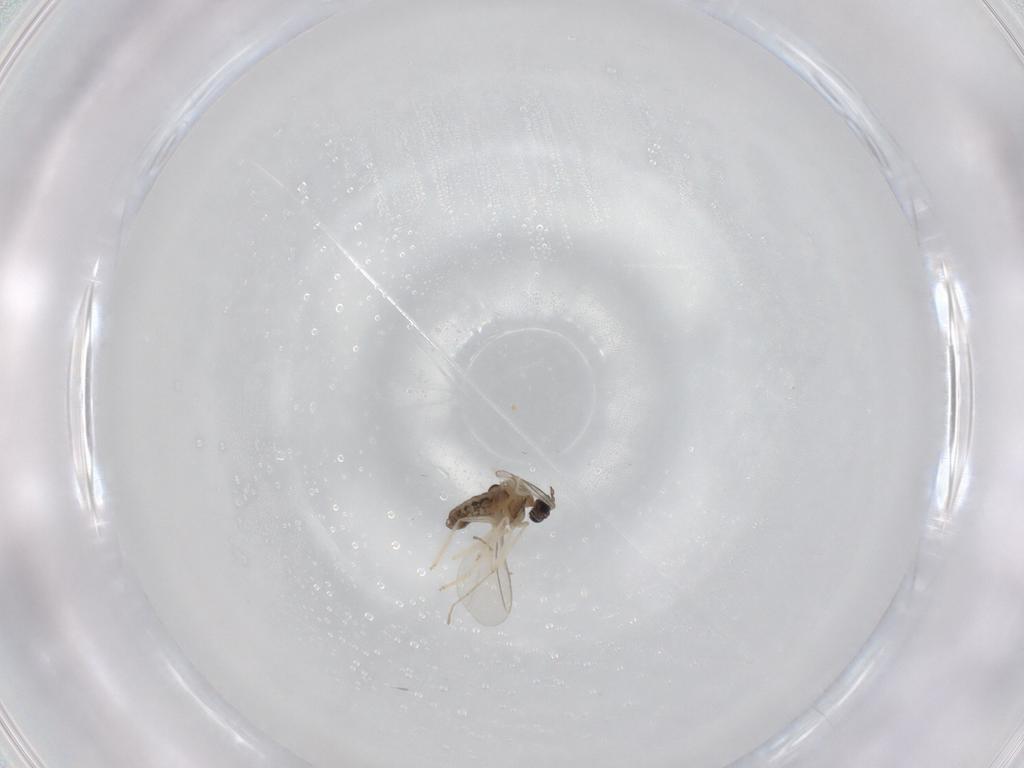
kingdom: Animalia
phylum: Arthropoda
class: Insecta
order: Diptera
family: Cecidomyiidae
